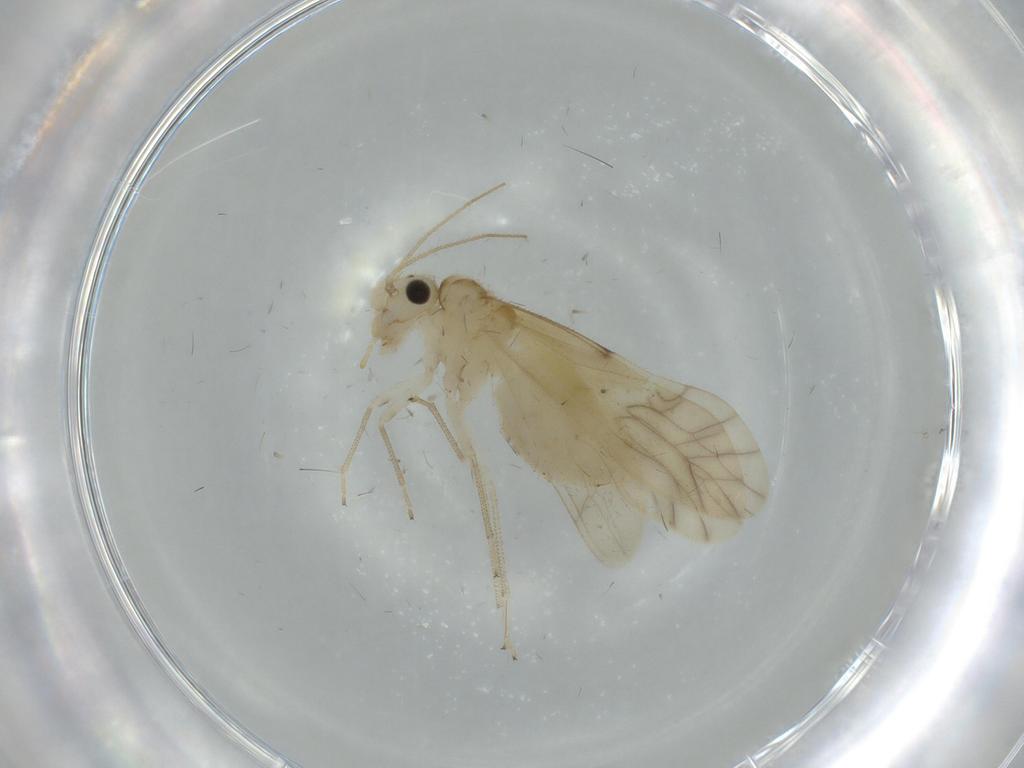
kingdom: Animalia
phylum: Arthropoda
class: Insecta
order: Psocodea
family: Caeciliusidae
